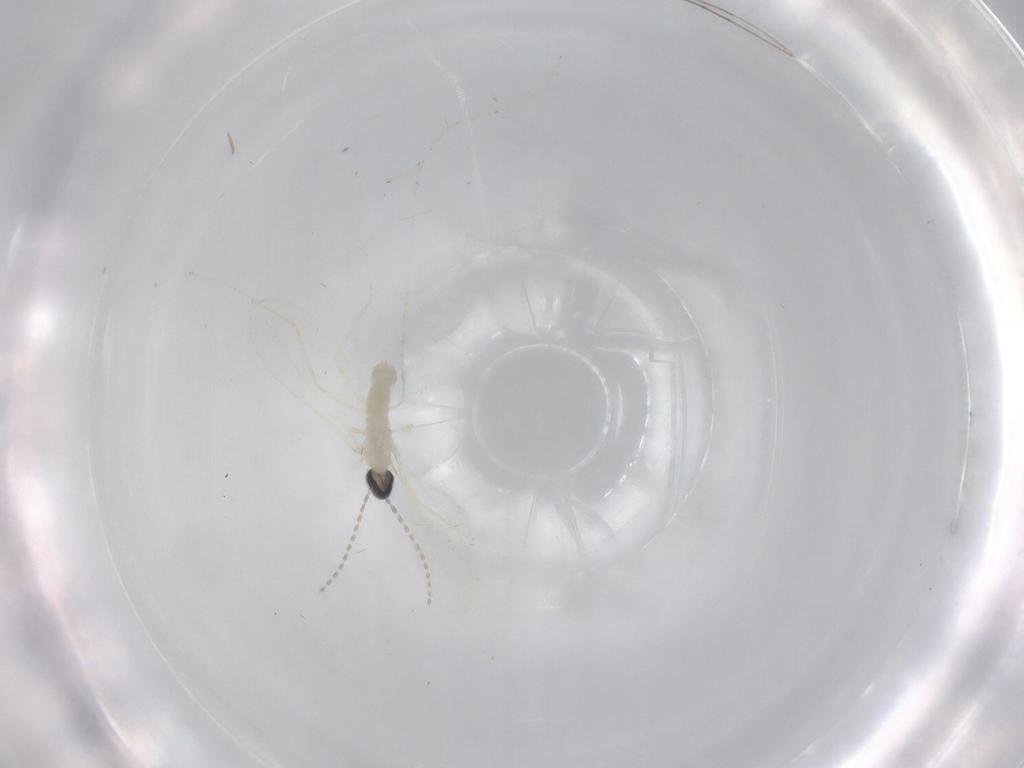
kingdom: Animalia
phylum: Arthropoda
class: Insecta
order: Diptera
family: Cecidomyiidae
